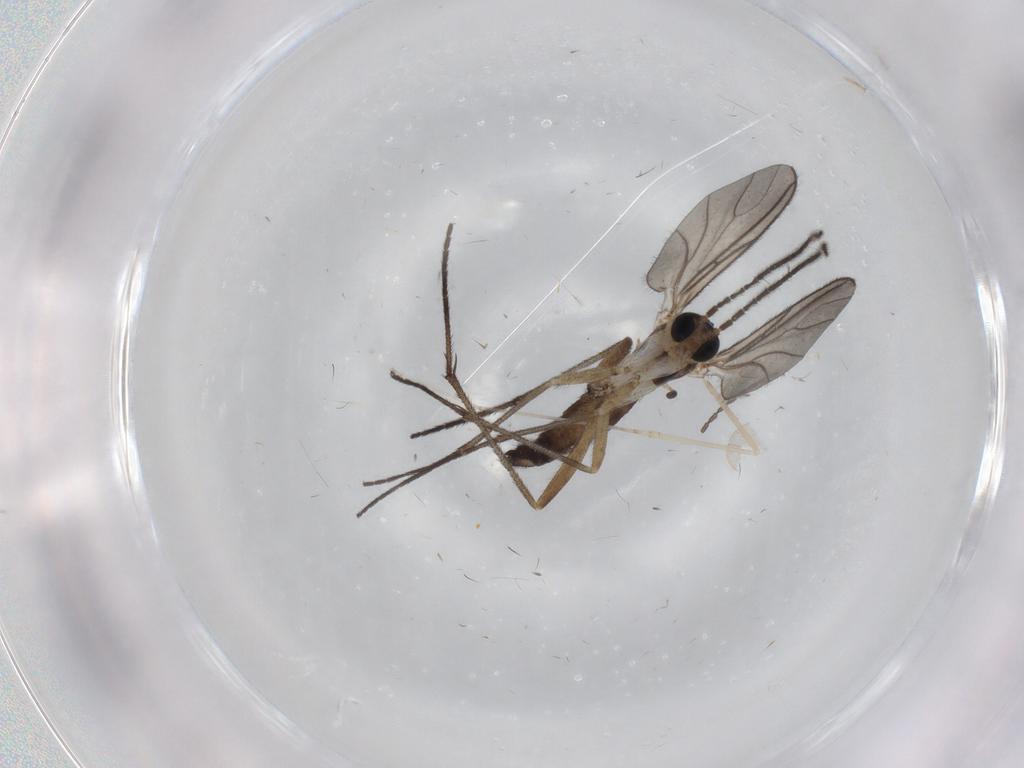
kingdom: Animalia
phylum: Arthropoda
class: Insecta
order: Diptera
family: Cecidomyiidae
